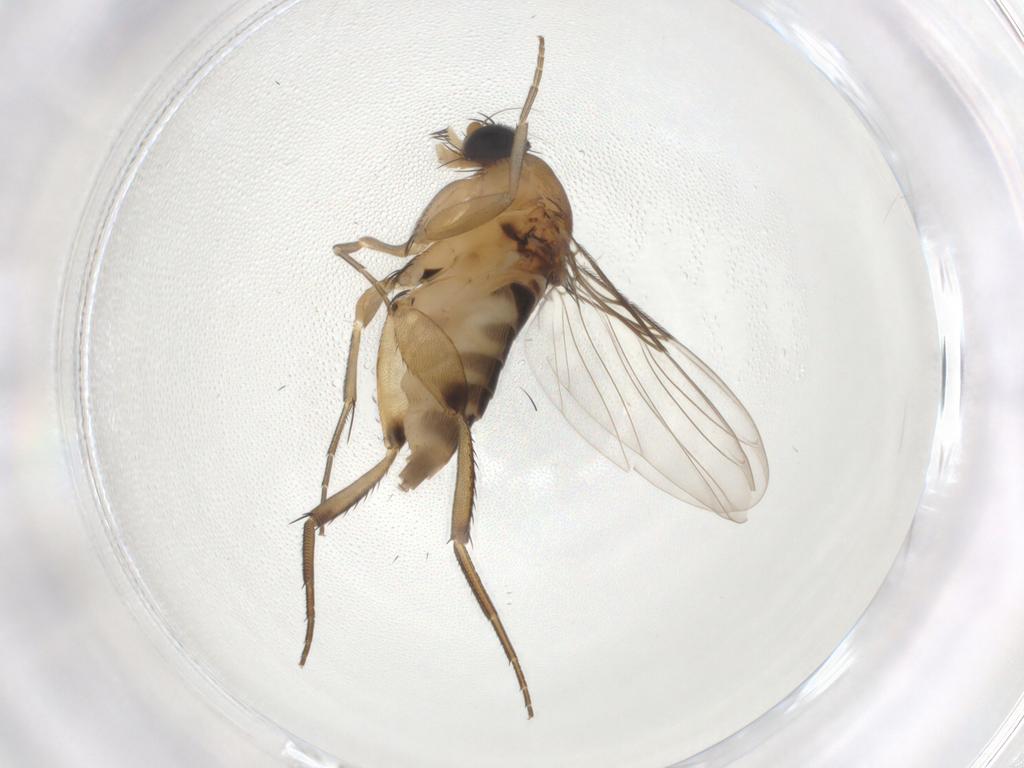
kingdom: Animalia
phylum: Arthropoda
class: Insecta
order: Diptera
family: Phoridae
